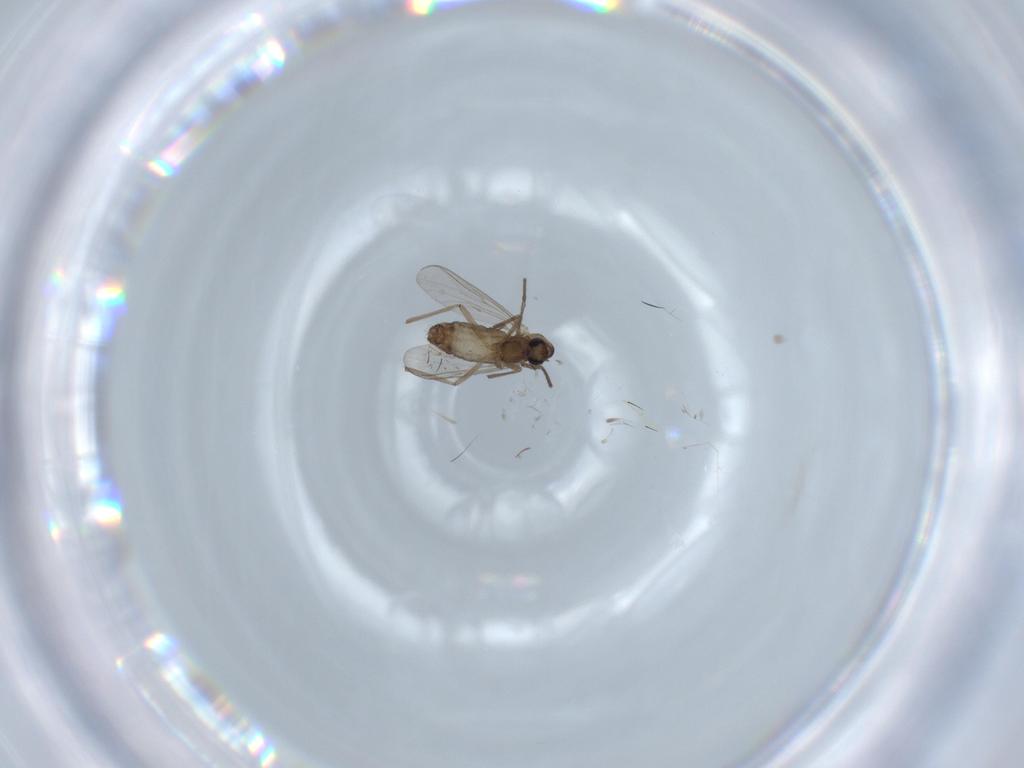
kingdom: Animalia
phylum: Arthropoda
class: Insecta
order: Diptera
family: Chironomidae
